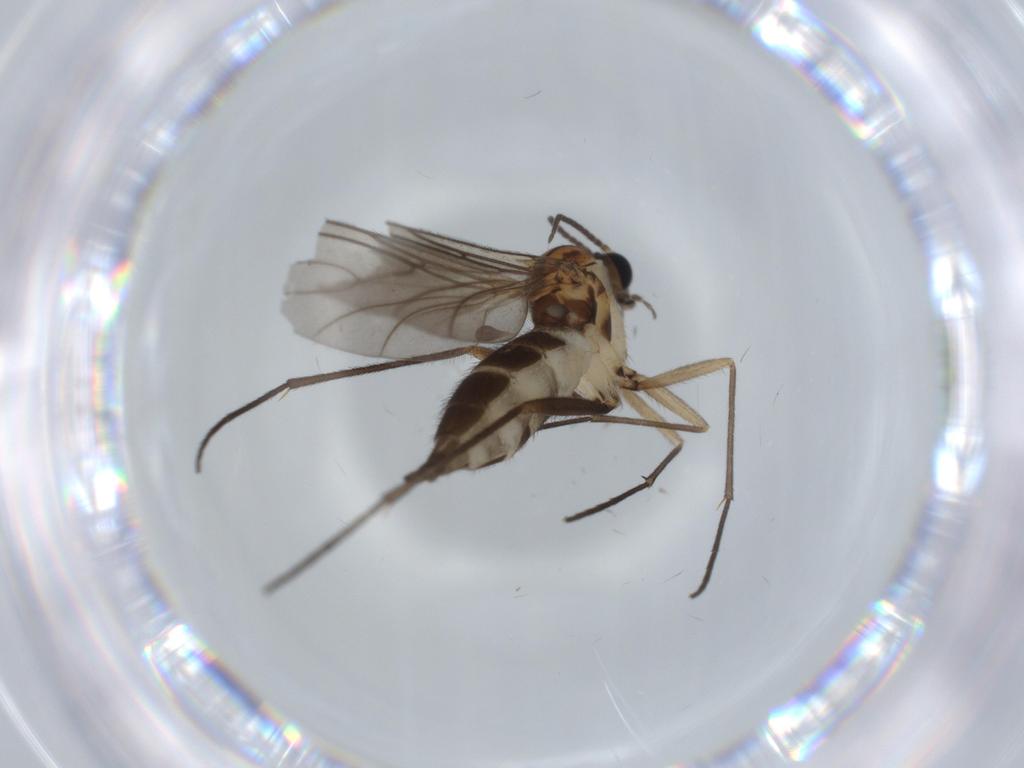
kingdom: Animalia
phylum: Arthropoda
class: Insecta
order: Diptera
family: Sciaridae
